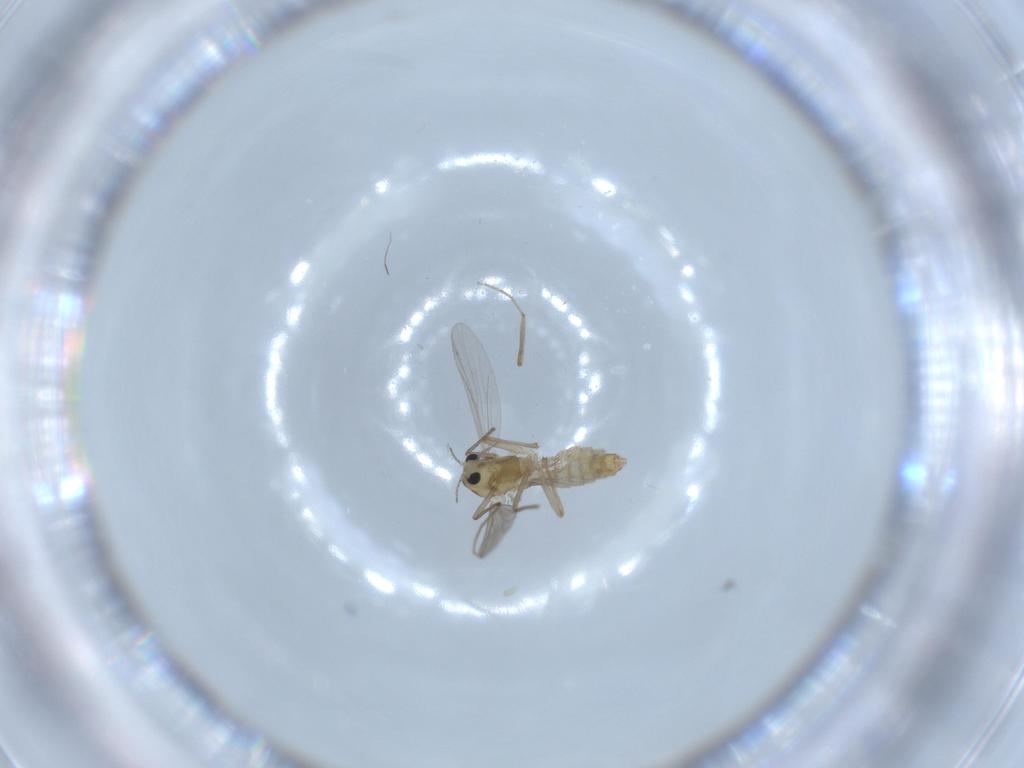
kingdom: Animalia
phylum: Arthropoda
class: Insecta
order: Diptera
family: Chironomidae
